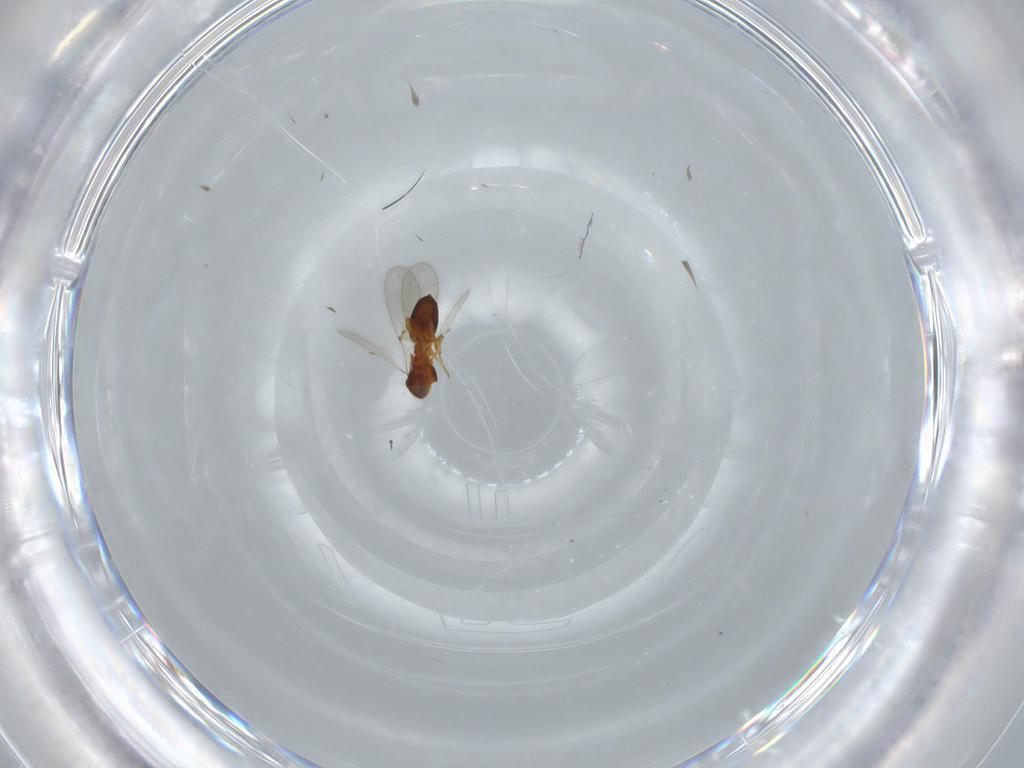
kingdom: Animalia
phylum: Arthropoda
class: Insecta
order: Hymenoptera
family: Diapriidae
